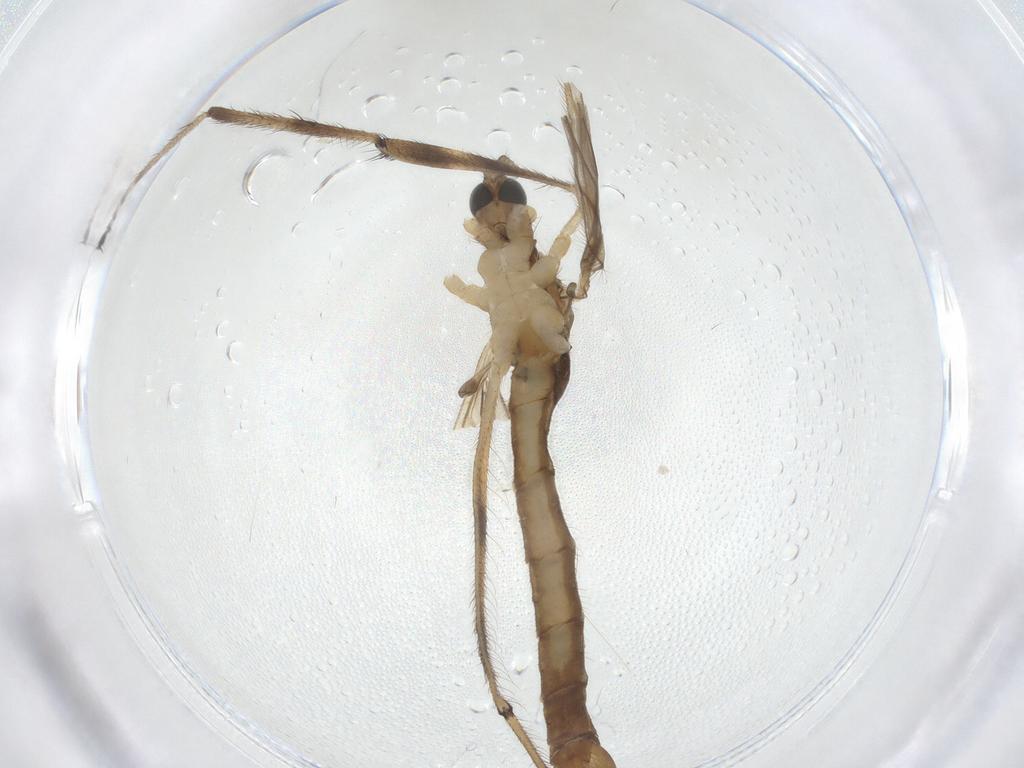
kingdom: Animalia
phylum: Arthropoda
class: Insecta
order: Diptera
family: Limoniidae
